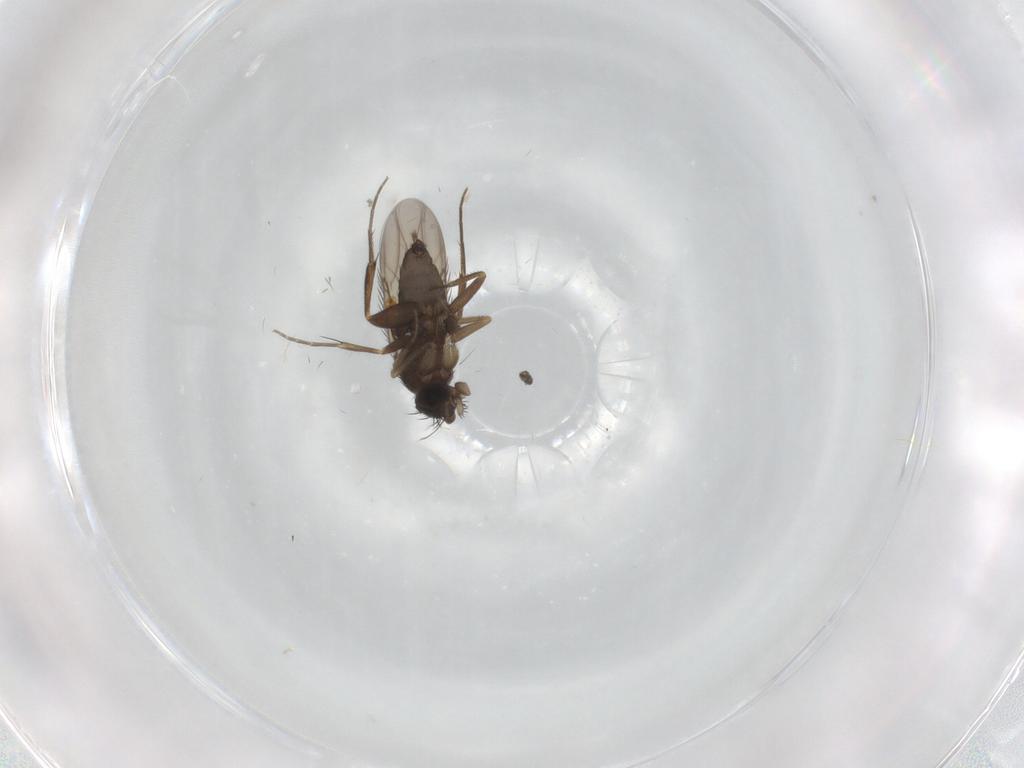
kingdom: Animalia
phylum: Arthropoda
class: Insecta
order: Diptera
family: Phoridae
